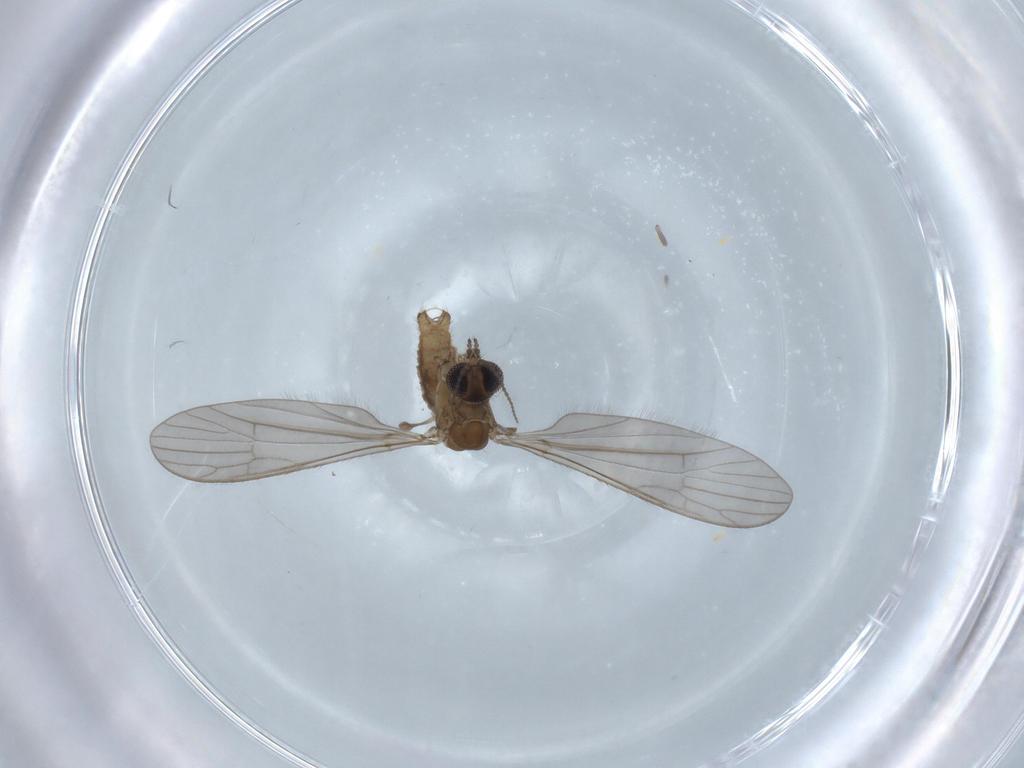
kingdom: Animalia
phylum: Arthropoda
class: Insecta
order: Diptera
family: Limoniidae
